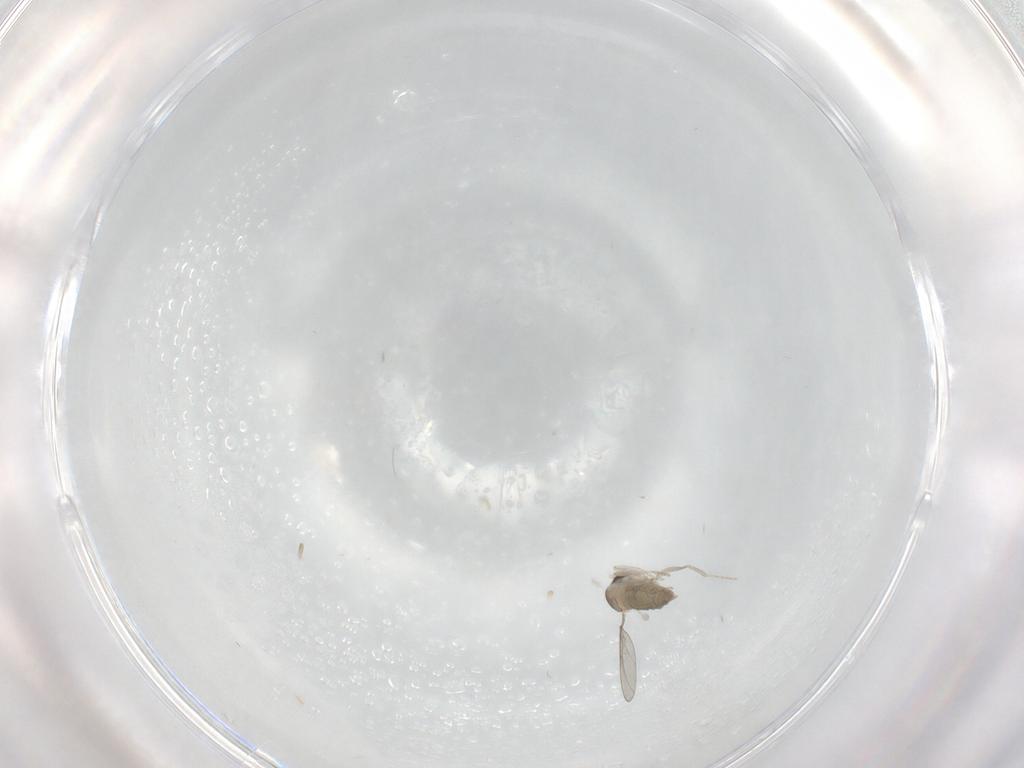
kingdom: Animalia
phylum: Arthropoda
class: Insecta
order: Diptera
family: Cecidomyiidae
